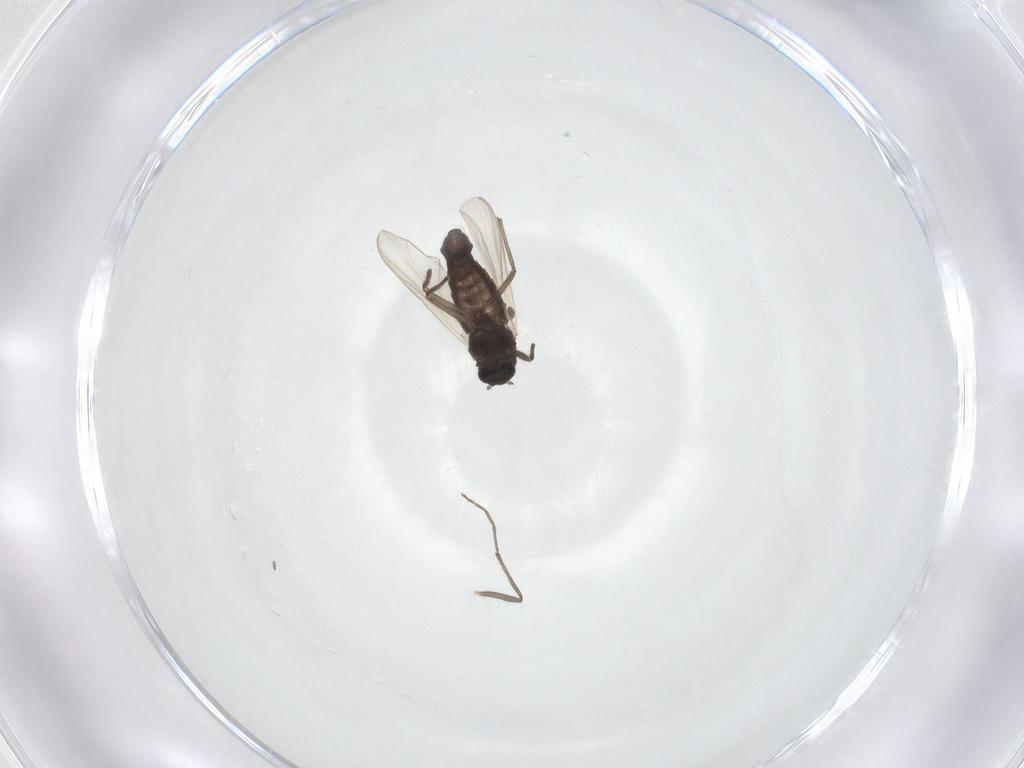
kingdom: Animalia
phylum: Arthropoda
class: Insecta
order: Diptera
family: Chironomidae
